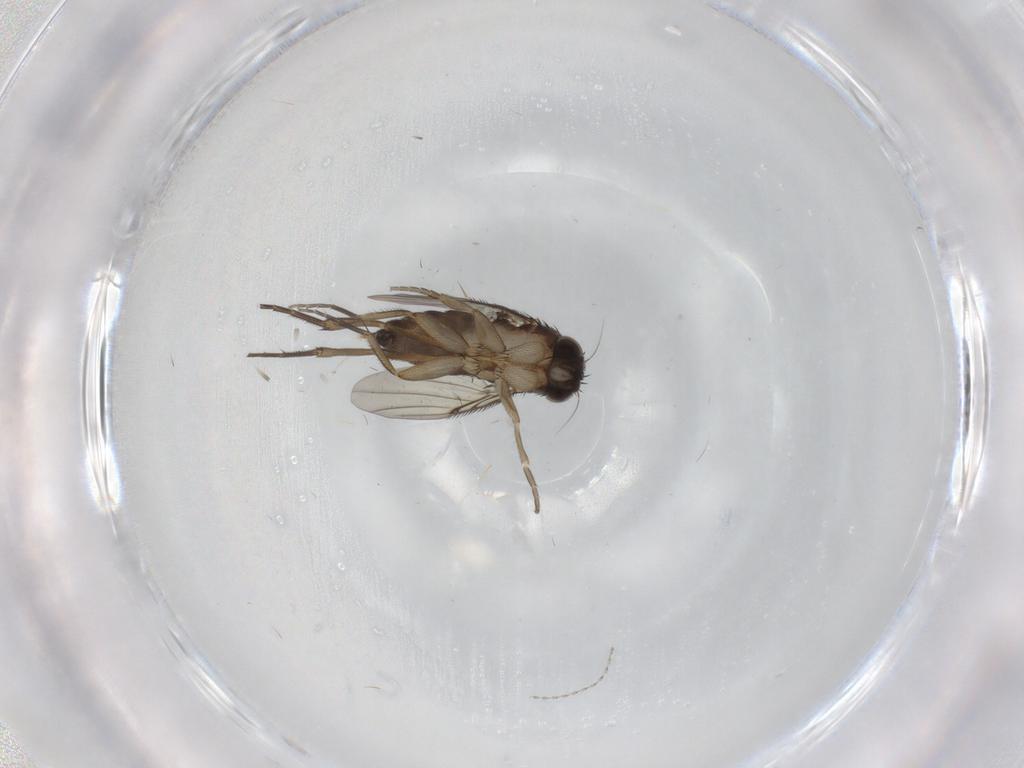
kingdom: Animalia
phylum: Arthropoda
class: Insecta
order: Diptera
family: Phoridae
